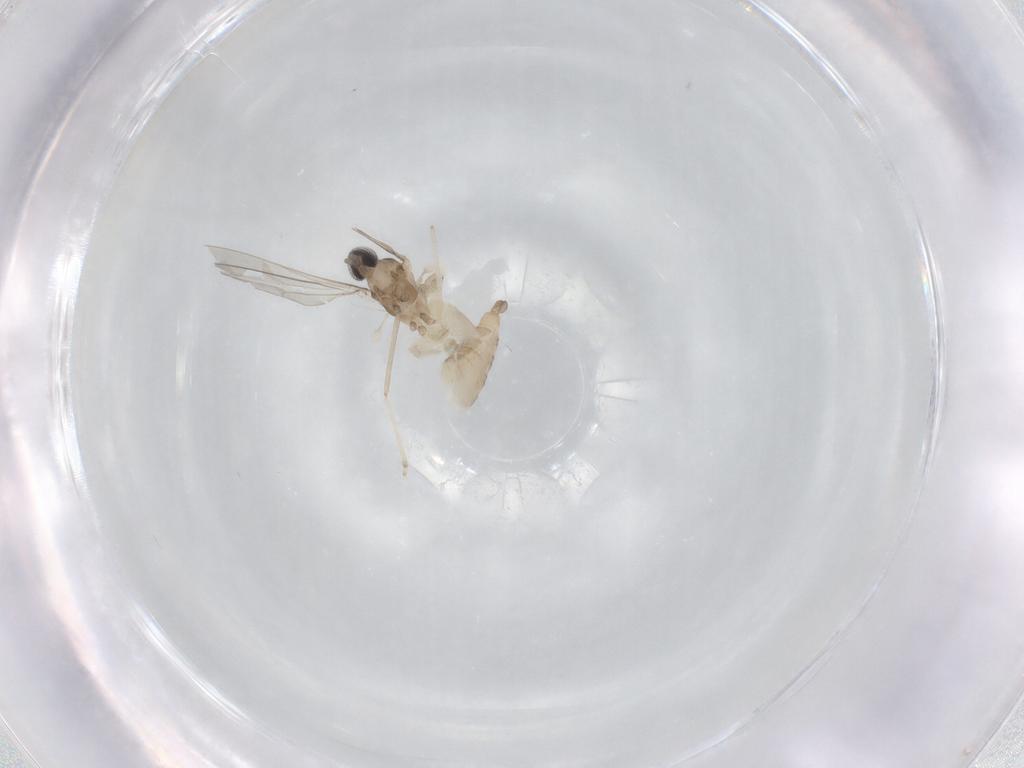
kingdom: Animalia
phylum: Arthropoda
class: Insecta
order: Diptera
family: Cecidomyiidae
